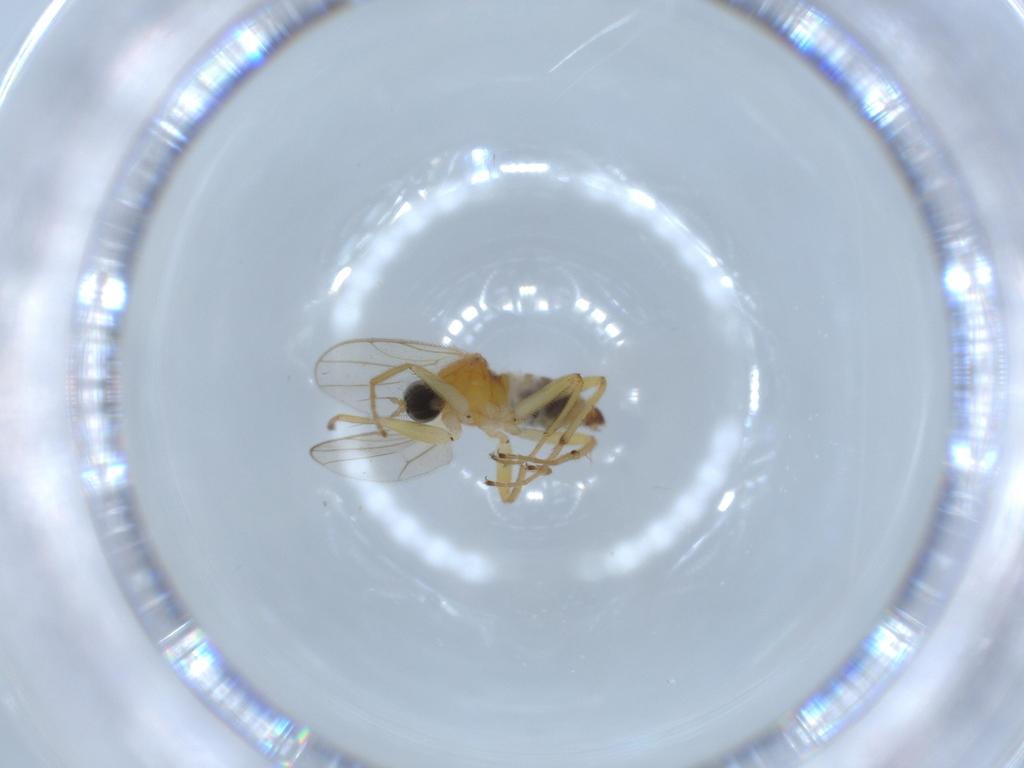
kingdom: Animalia
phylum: Arthropoda
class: Insecta
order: Diptera
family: Hybotidae
